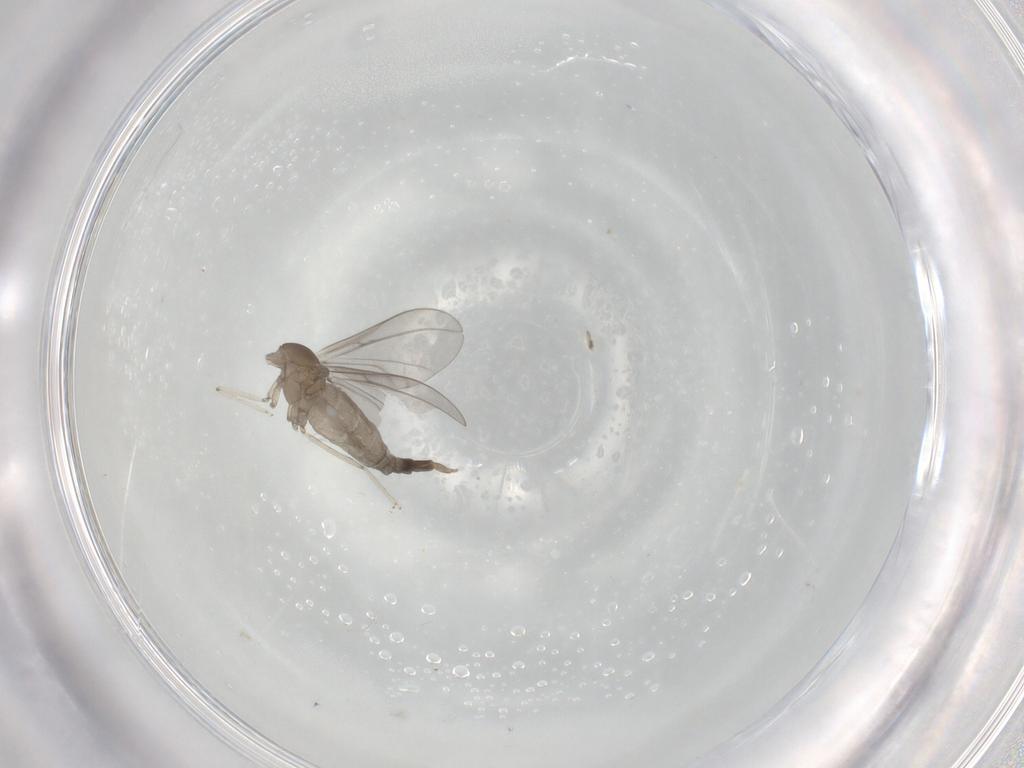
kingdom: Animalia
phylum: Arthropoda
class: Insecta
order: Diptera
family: Cecidomyiidae
